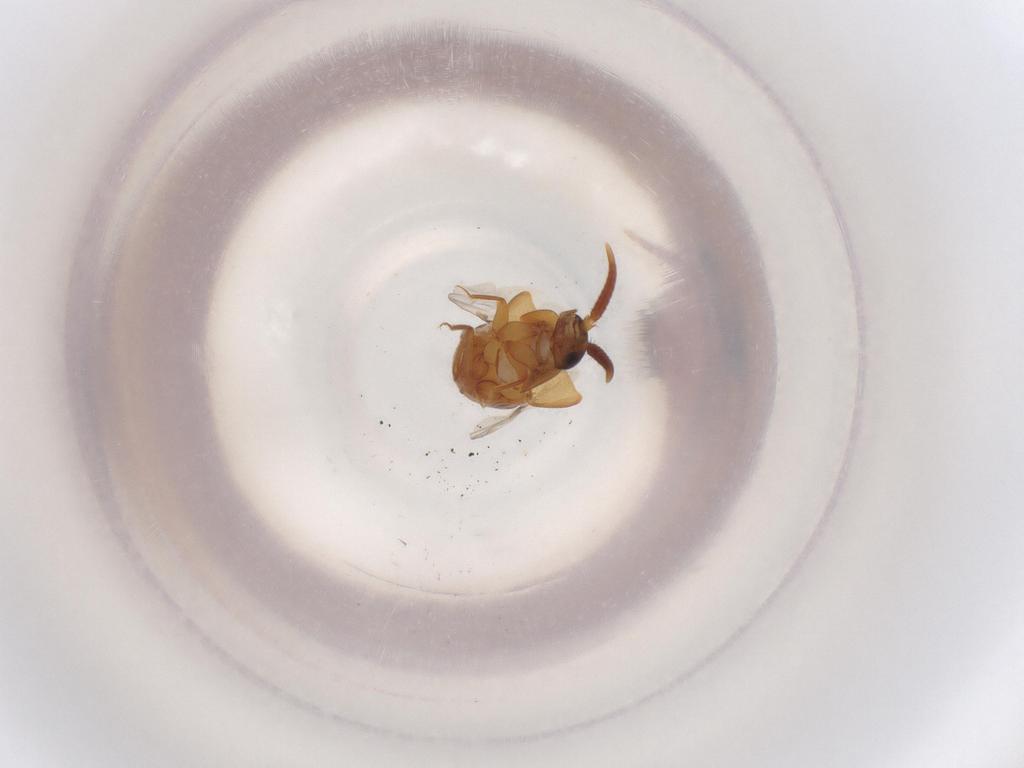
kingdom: Animalia
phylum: Arthropoda
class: Insecta
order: Coleoptera
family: Staphylinidae
